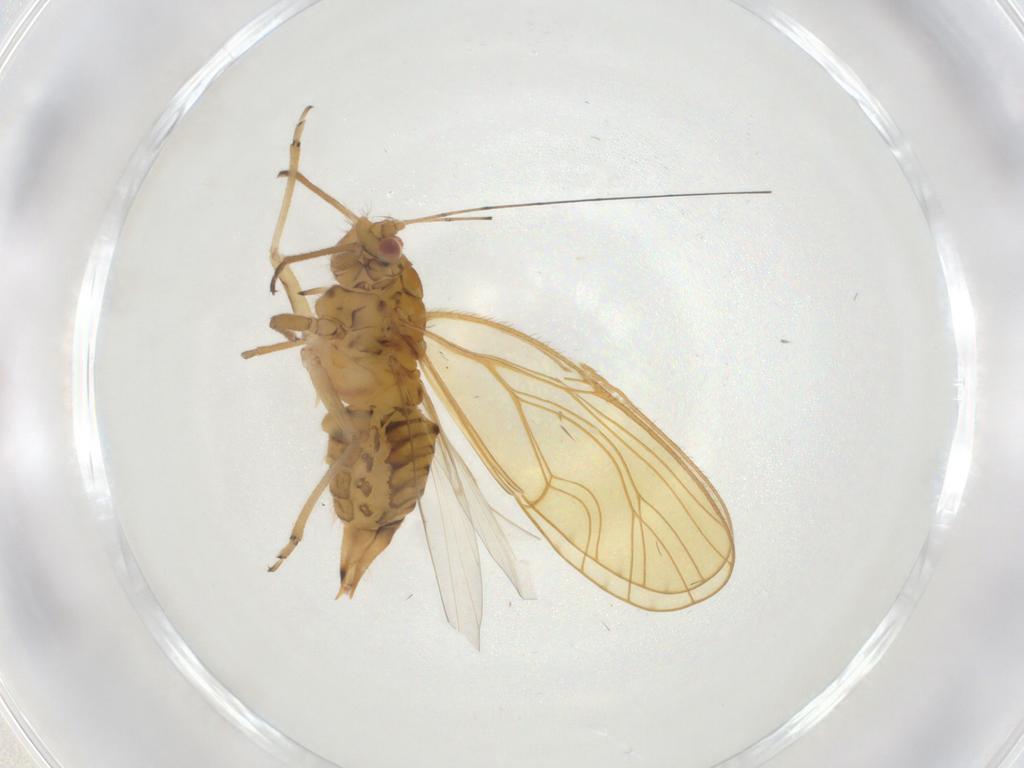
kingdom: Animalia
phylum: Arthropoda
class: Insecta
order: Hemiptera
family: Psyllidae
